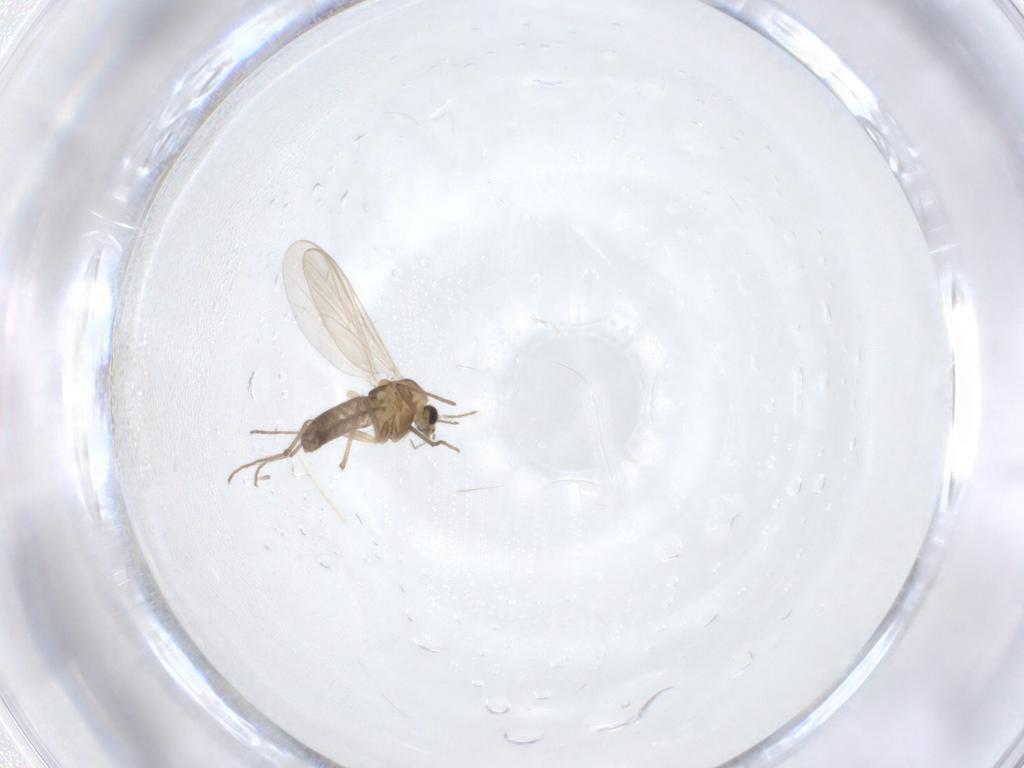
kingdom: Animalia
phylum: Arthropoda
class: Insecta
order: Diptera
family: Chironomidae
